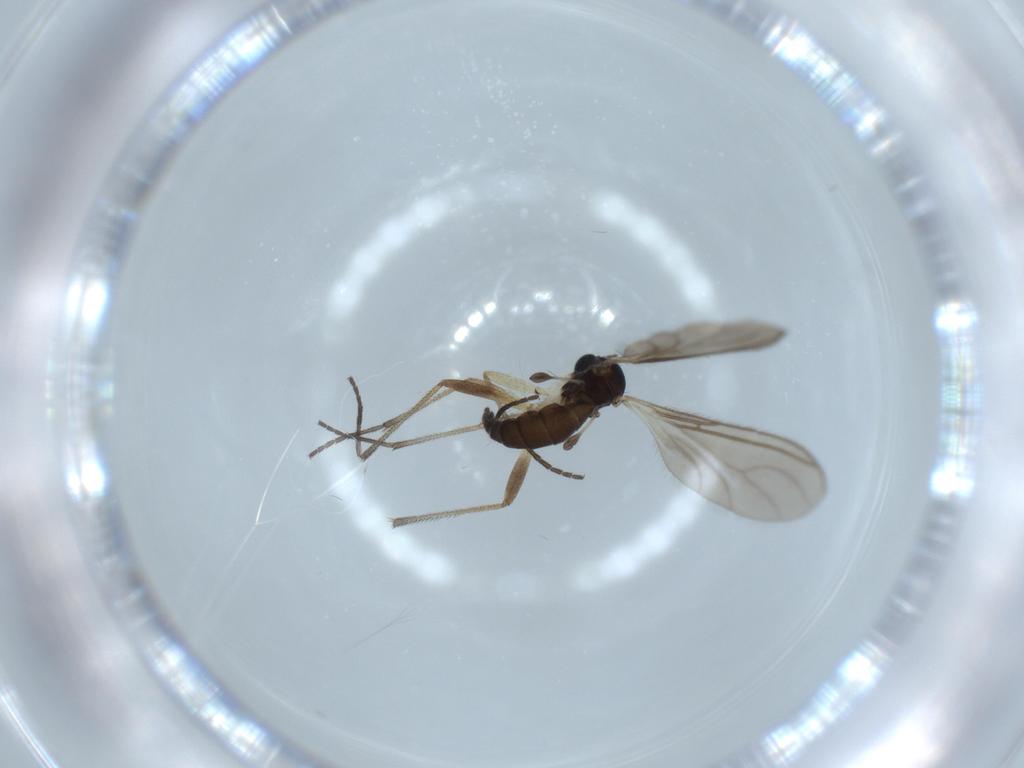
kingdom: Animalia
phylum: Arthropoda
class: Insecta
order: Diptera
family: Sciaridae
